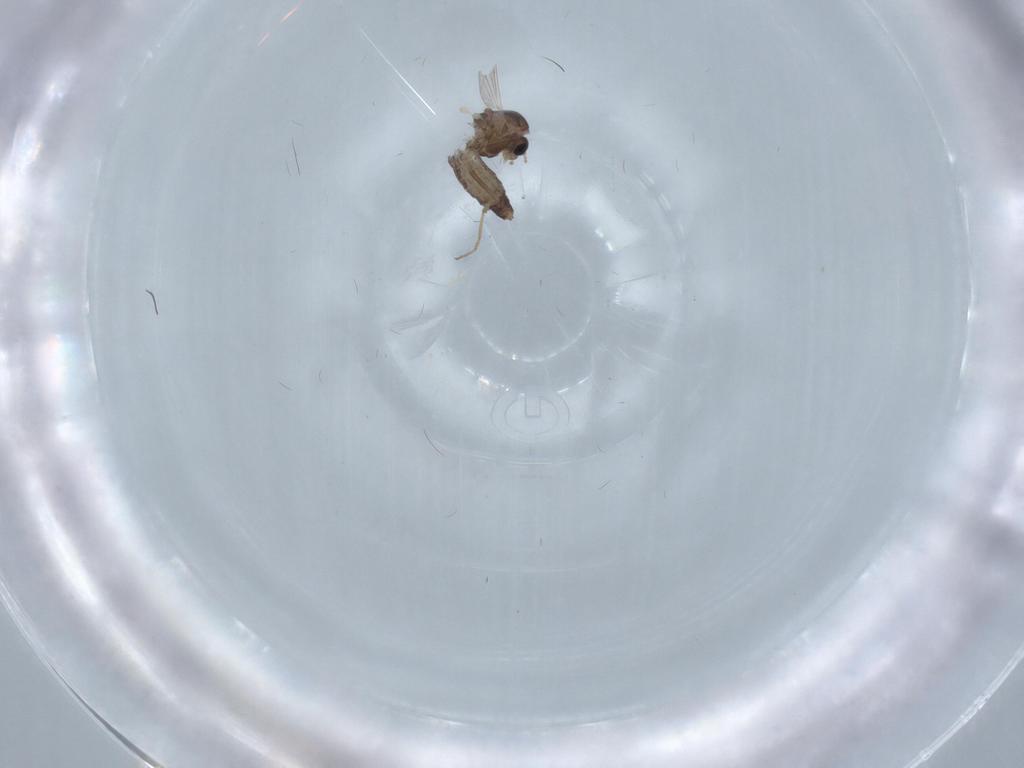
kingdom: Animalia
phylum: Arthropoda
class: Insecta
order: Diptera
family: Chironomidae
